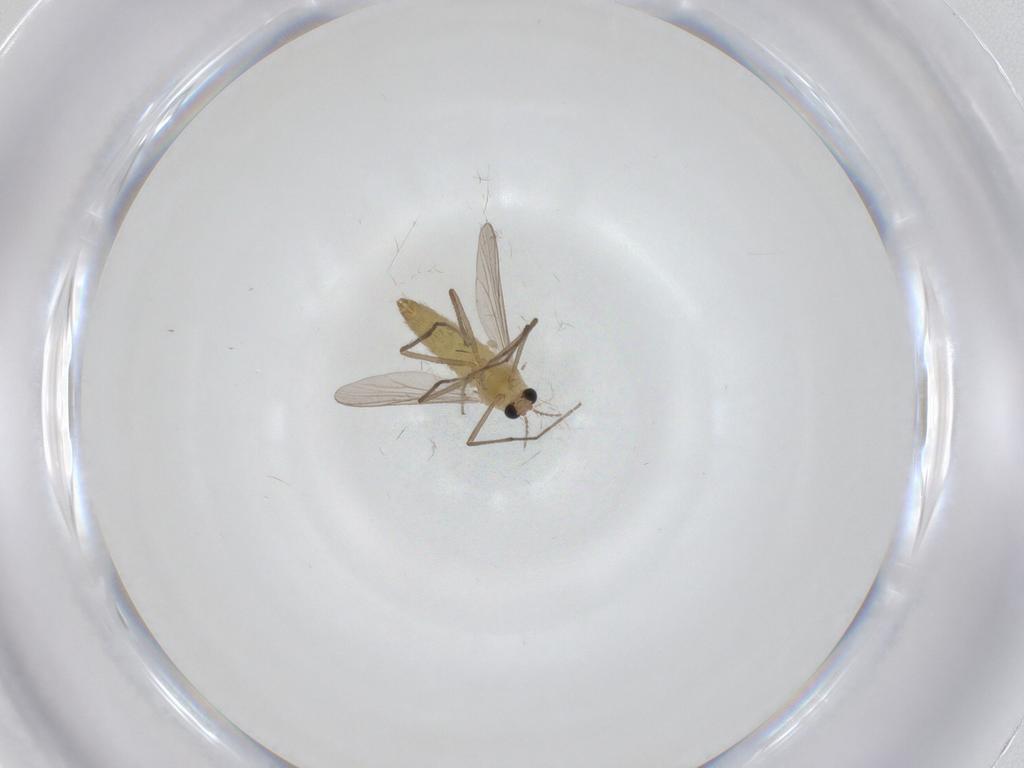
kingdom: Animalia
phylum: Arthropoda
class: Insecta
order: Diptera
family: Chironomidae
